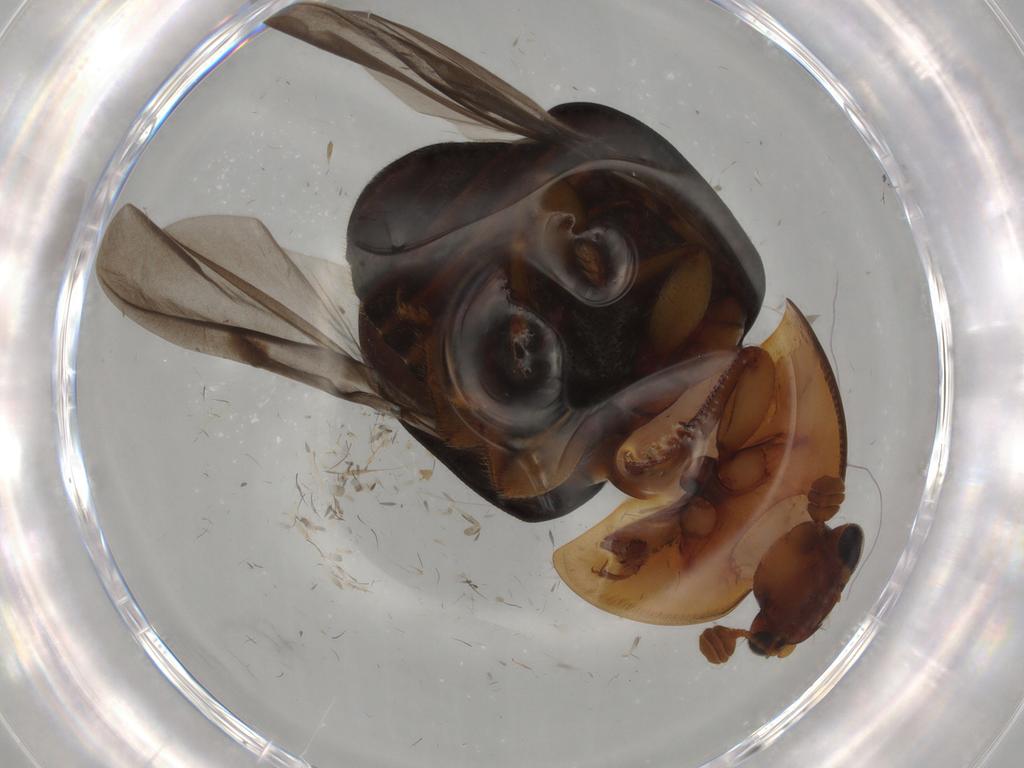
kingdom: Animalia
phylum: Arthropoda
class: Insecta
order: Coleoptera
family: Nitidulidae
